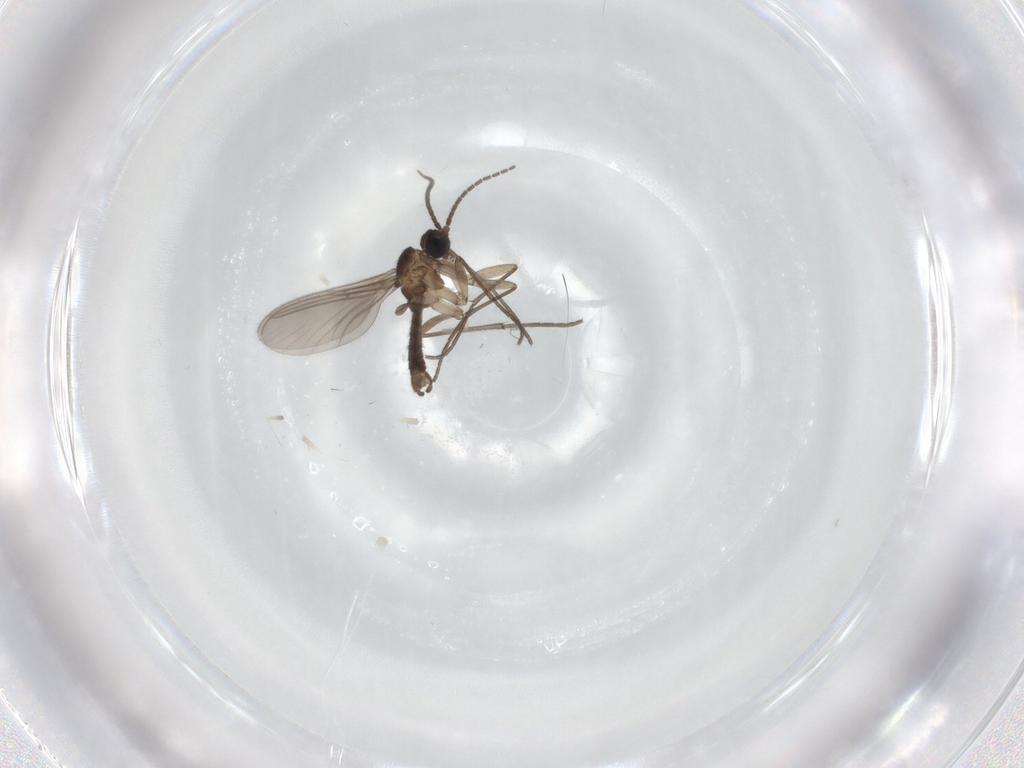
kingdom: Animalia
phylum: Arthropoda
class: Insecta
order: Diptera
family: Sciaridae
